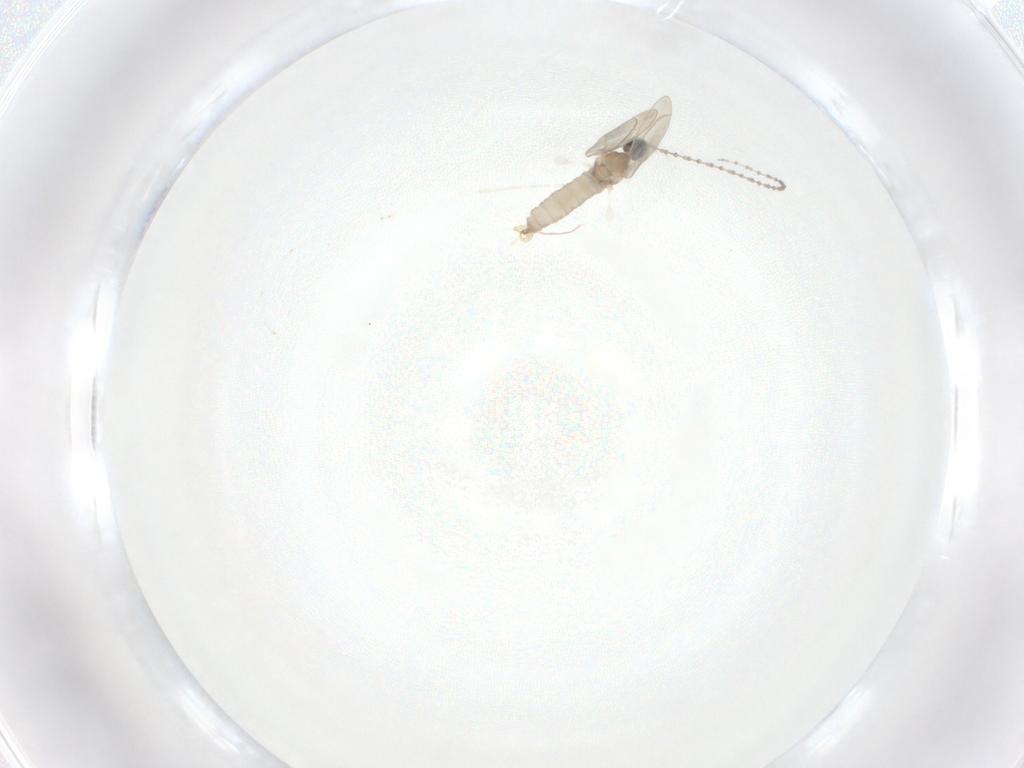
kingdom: Animalia
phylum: Arthropoda
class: Insecta
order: Diptera
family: Cecidomyiidae
